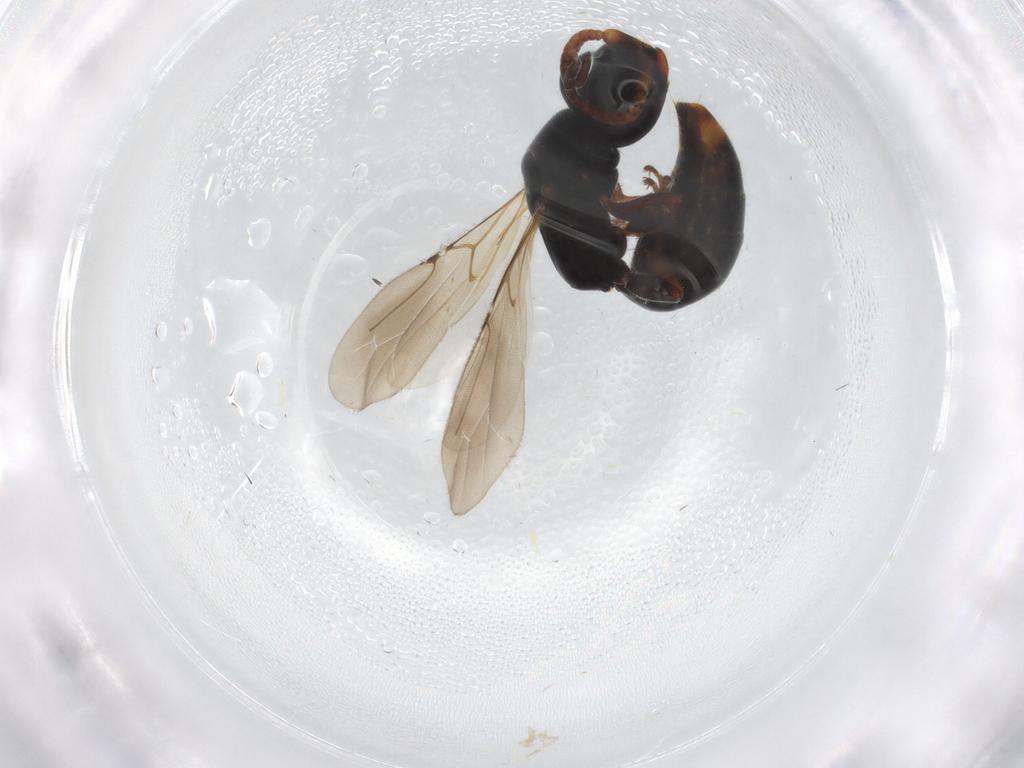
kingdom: Animalia
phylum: Arthropoda
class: Insecta
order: Hymenoptera
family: Bethylidae
